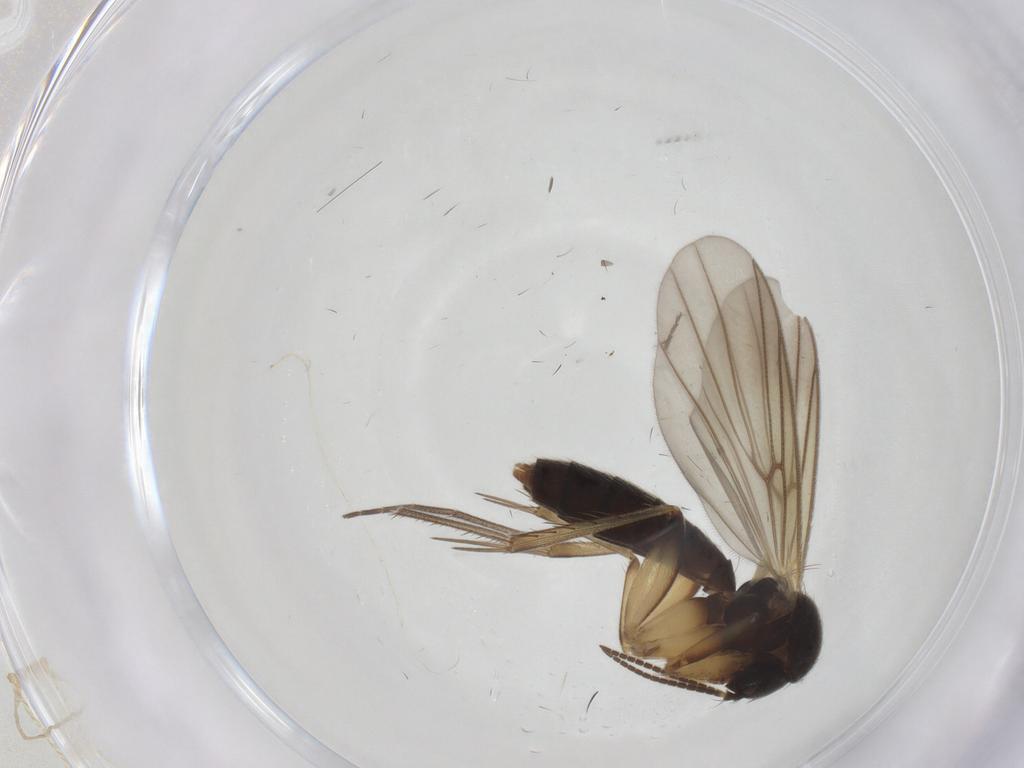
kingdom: Animalia
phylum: Arthropoda
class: Insecta
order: Diptera
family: Mycetophilidae
